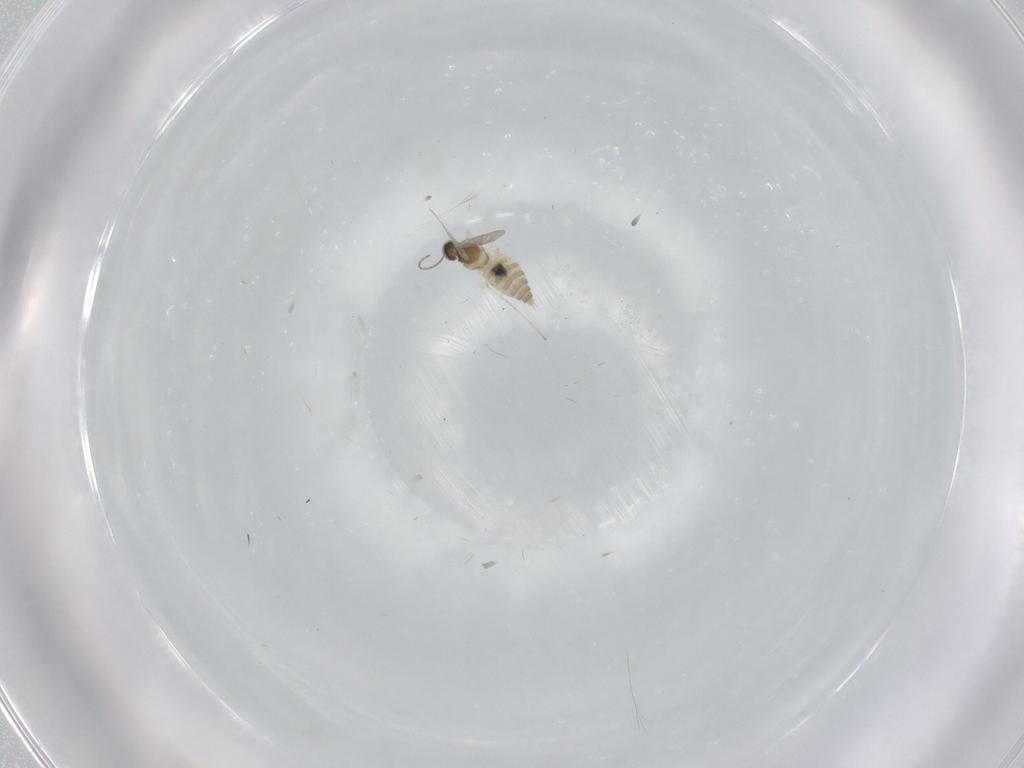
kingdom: Animalia
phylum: Arthropoda
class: Insecta
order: Diptera
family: Cecidomyiidae
